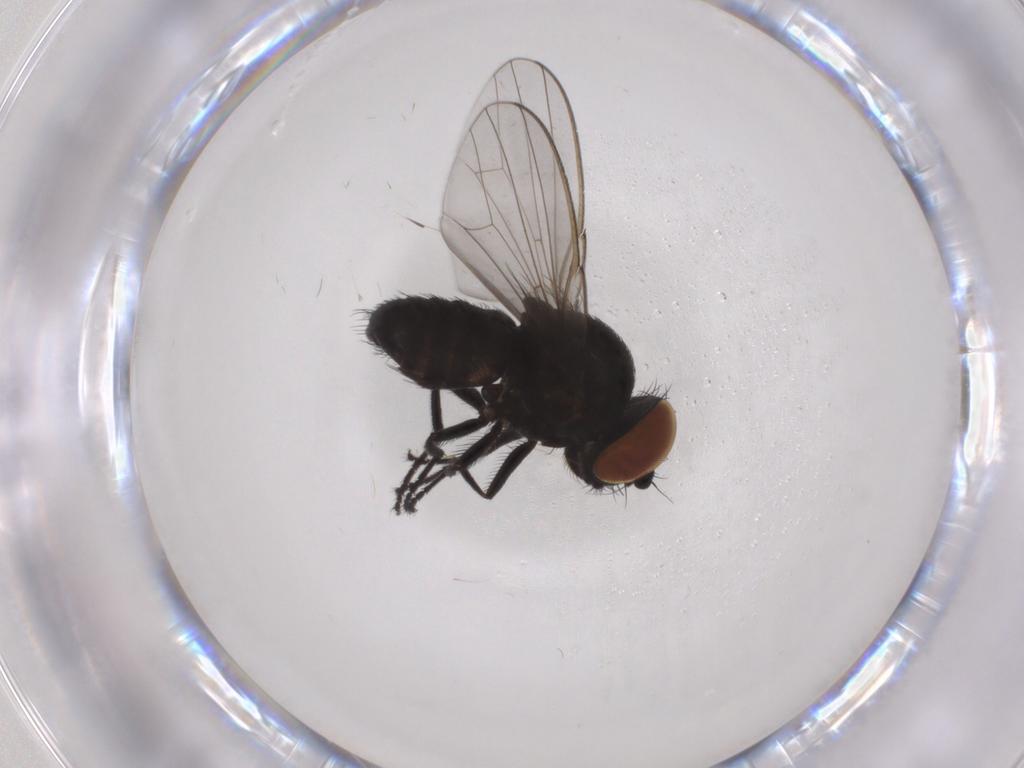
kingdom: Animalia
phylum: Arthropoda
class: Insecta
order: Diptera
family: Milichiidae
